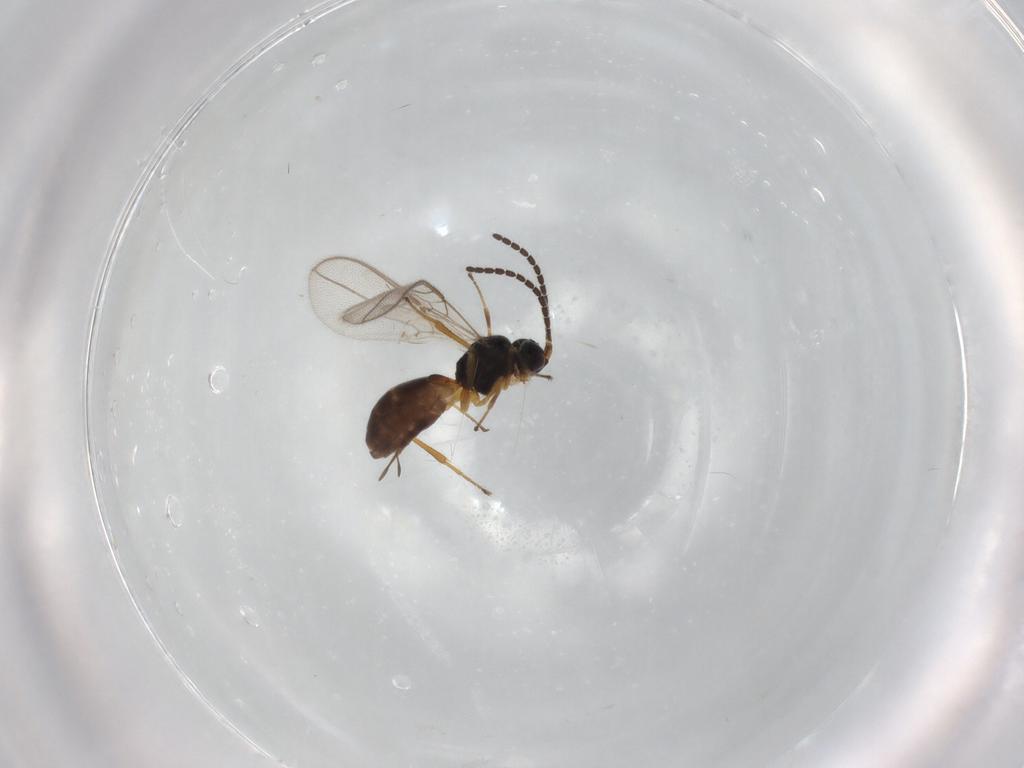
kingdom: Animalia
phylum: Arthropoda
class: Insecta
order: Hymenoptera
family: Braconidae
